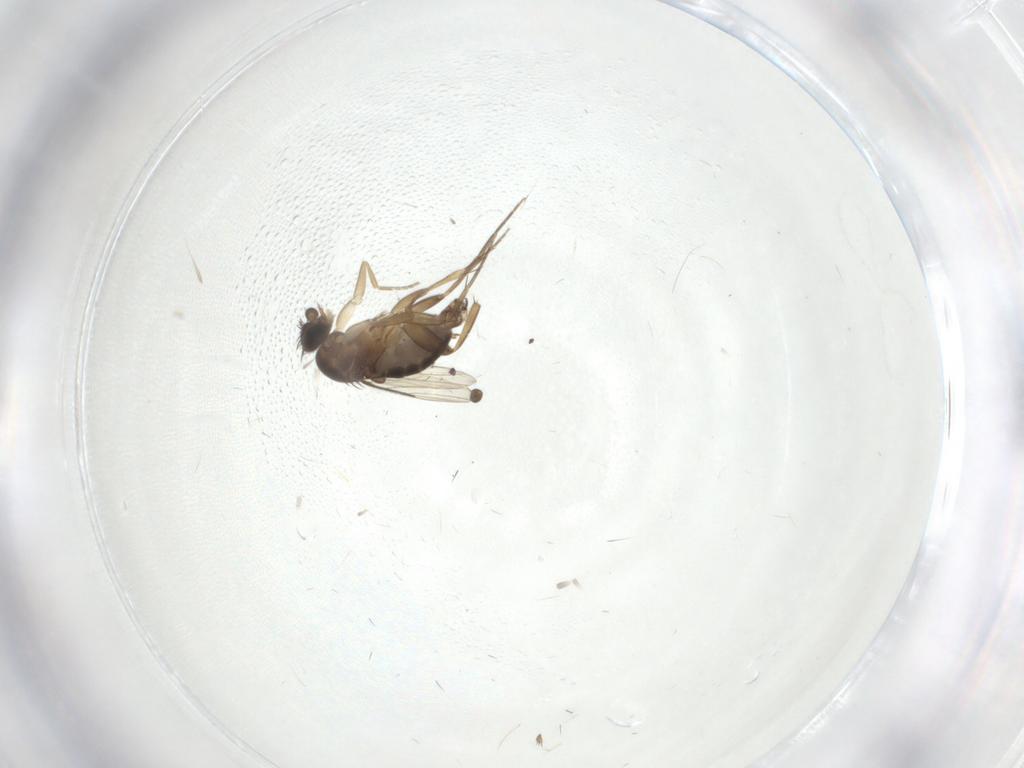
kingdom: Animalia
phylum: Arthropoda
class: Insecta
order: Diptera
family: Phoridae
